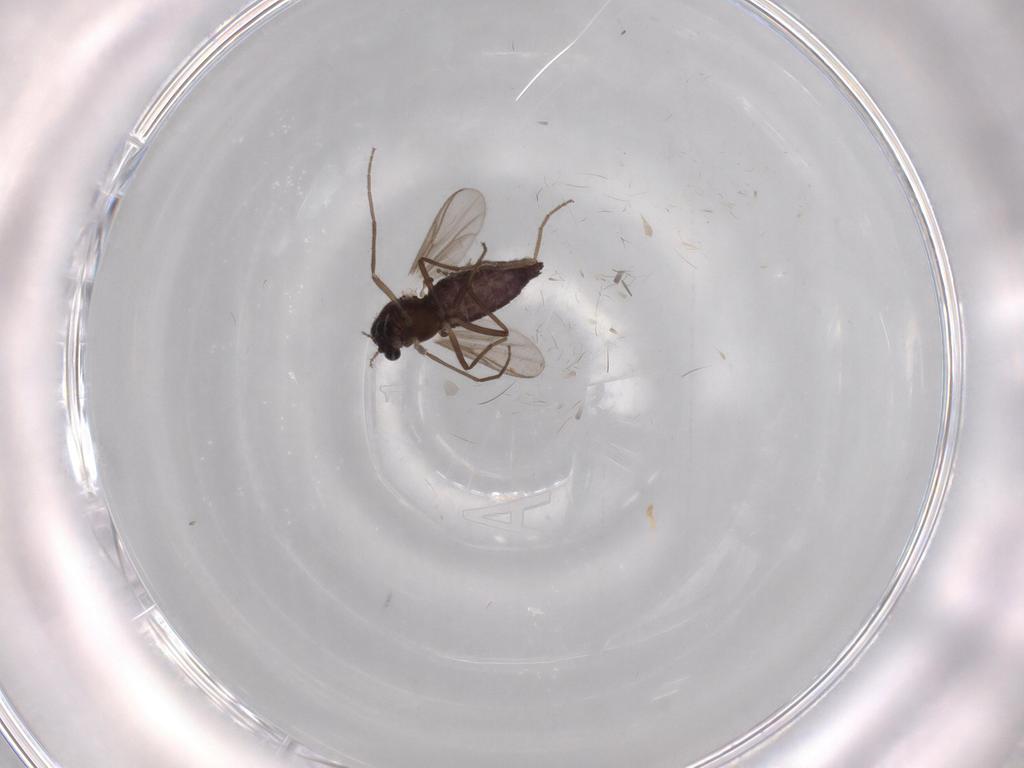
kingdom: Animalia
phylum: Arthropoda
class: Insecta
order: Diptera
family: Chironomidae
